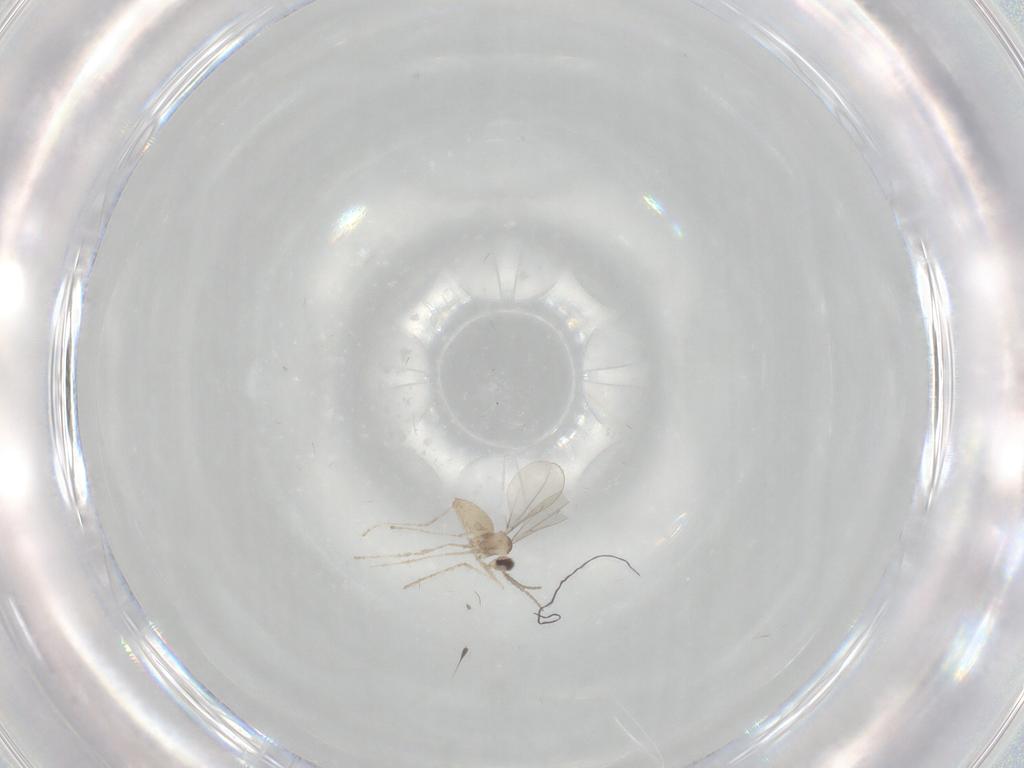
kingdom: Animalia
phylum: Arthropoda
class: Insecta
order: Diptera
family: Cecidomyiidae
